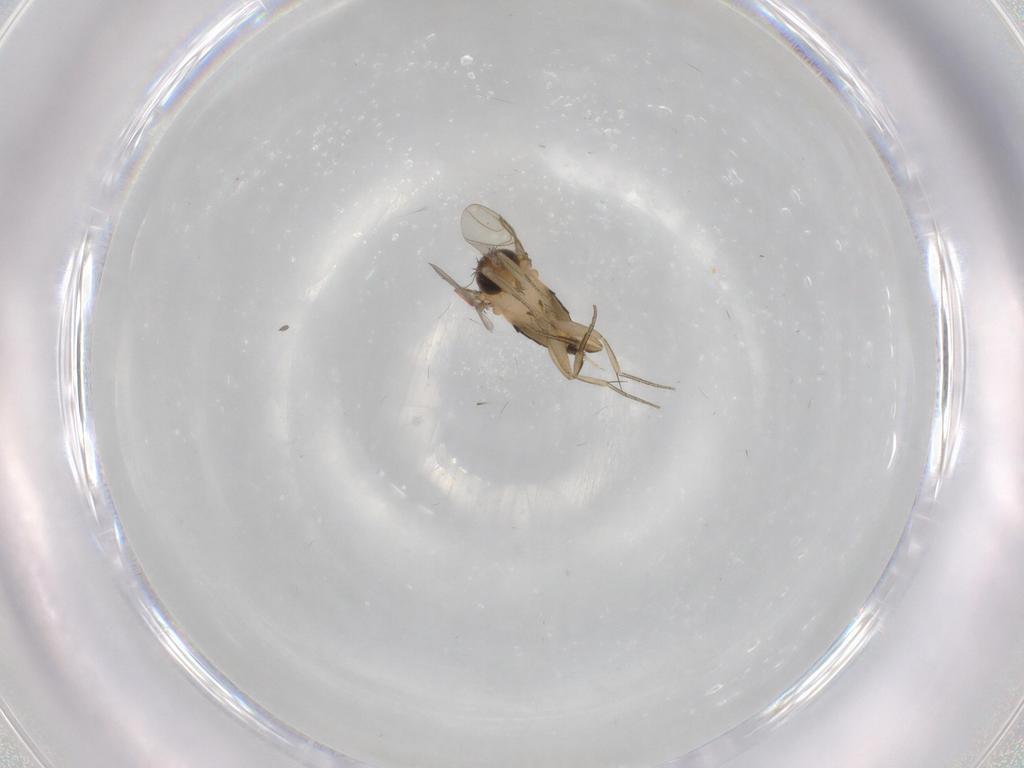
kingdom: Animalia
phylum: Arthropoda
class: Insecta
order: Diptera
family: Phoridae
